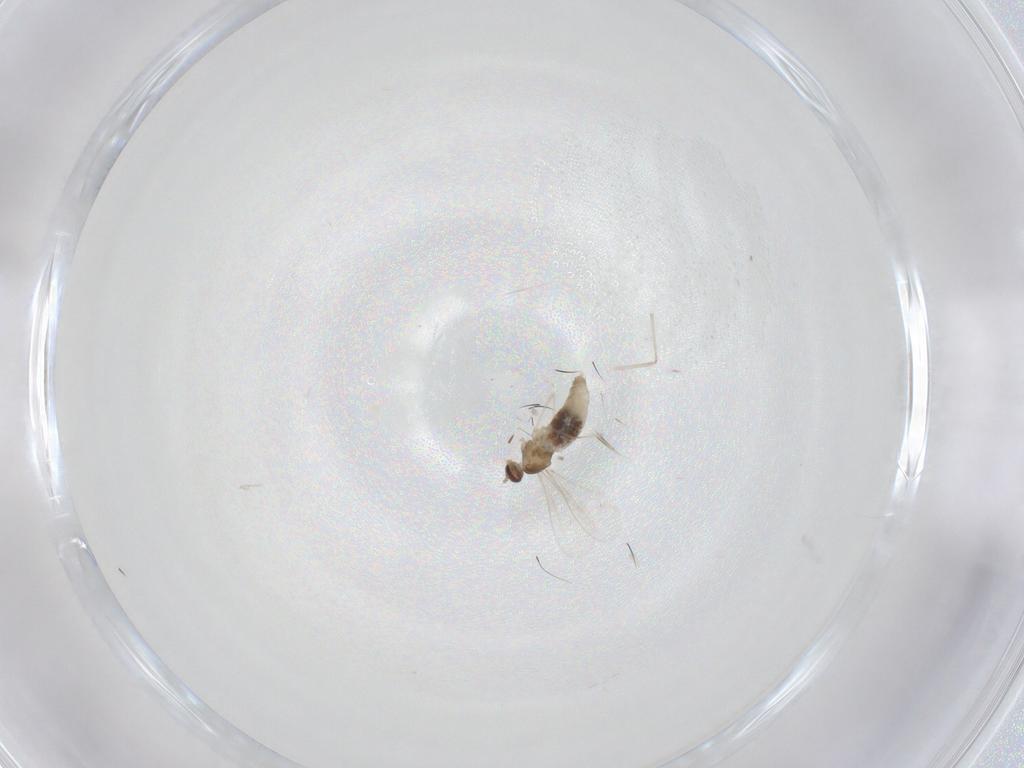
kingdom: Animalia
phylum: Arthropoda
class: Insecta
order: Diptera
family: Cecidomyiidae
